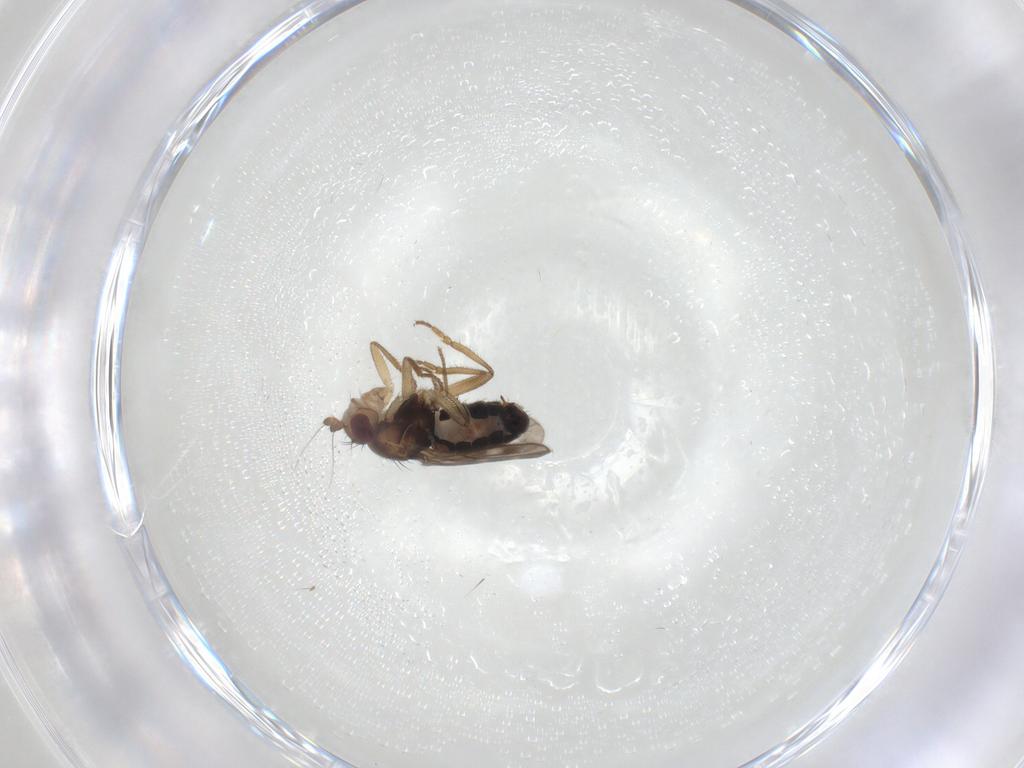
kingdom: Animalia
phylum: Arthropoda
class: Insecta
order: Diptera
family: Sphaeroceridae
